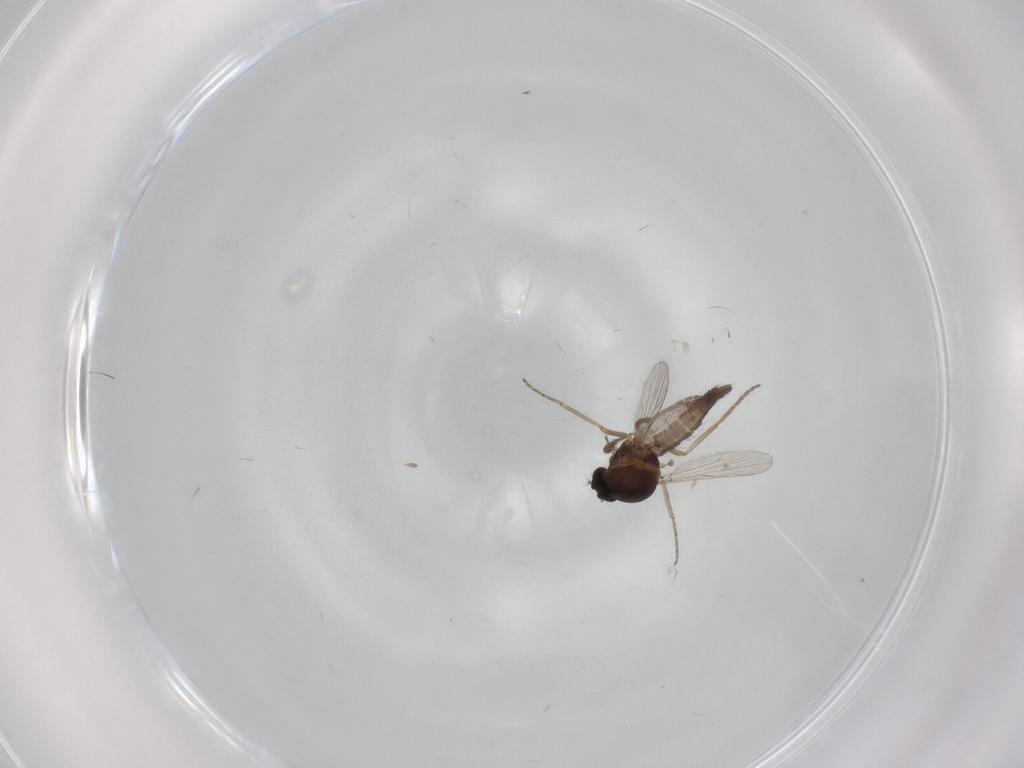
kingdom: Animalia
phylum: Arthropoda
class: Insecta
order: Diptera
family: Ceratopogonidae
